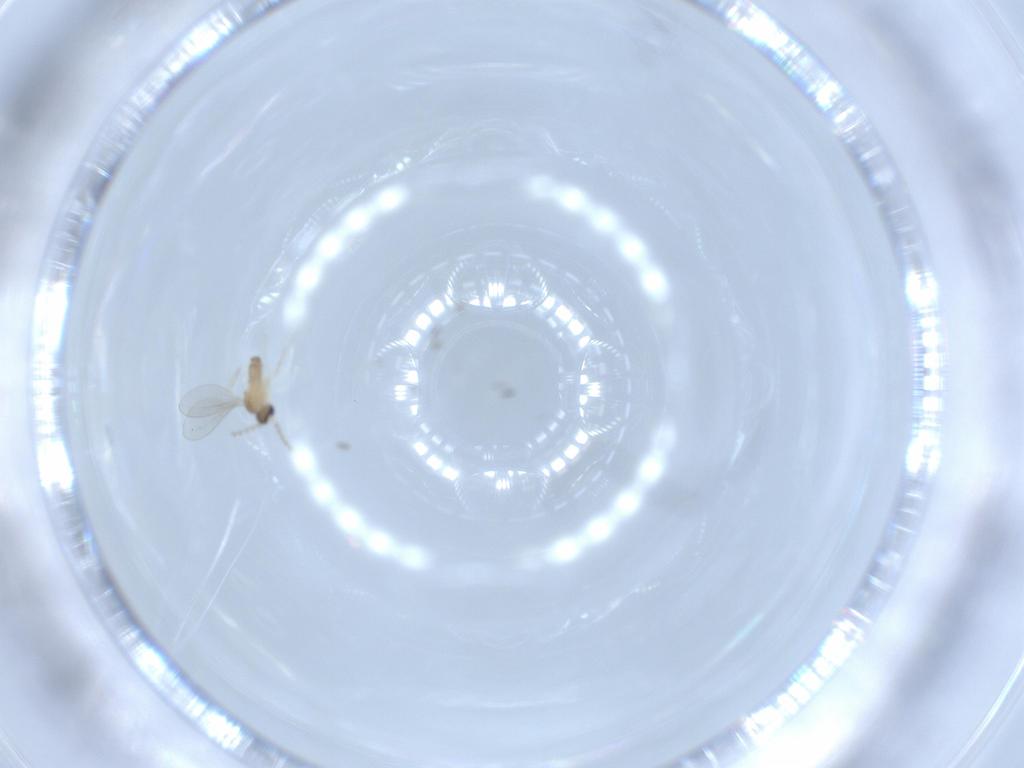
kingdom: Animalia
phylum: Arthropoda
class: Insecta
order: Diptera
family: Cecidomyiidae
